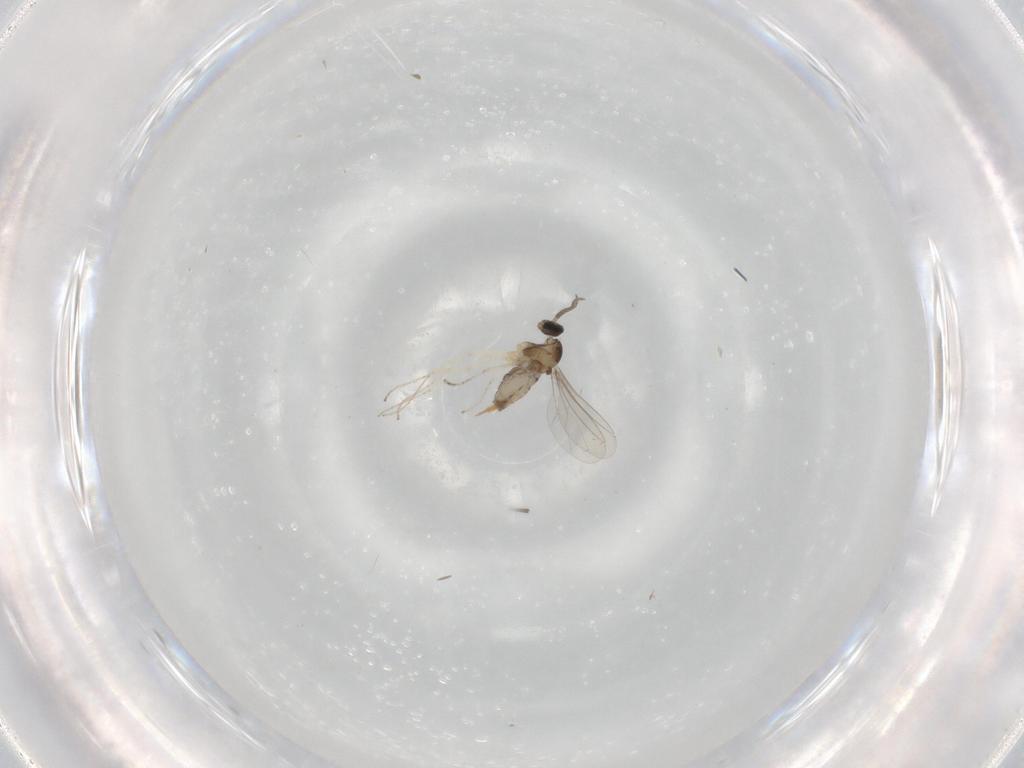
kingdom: Animalia
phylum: Arthropoda
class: Insecta
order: Diptera
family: Cecidomyiidae
